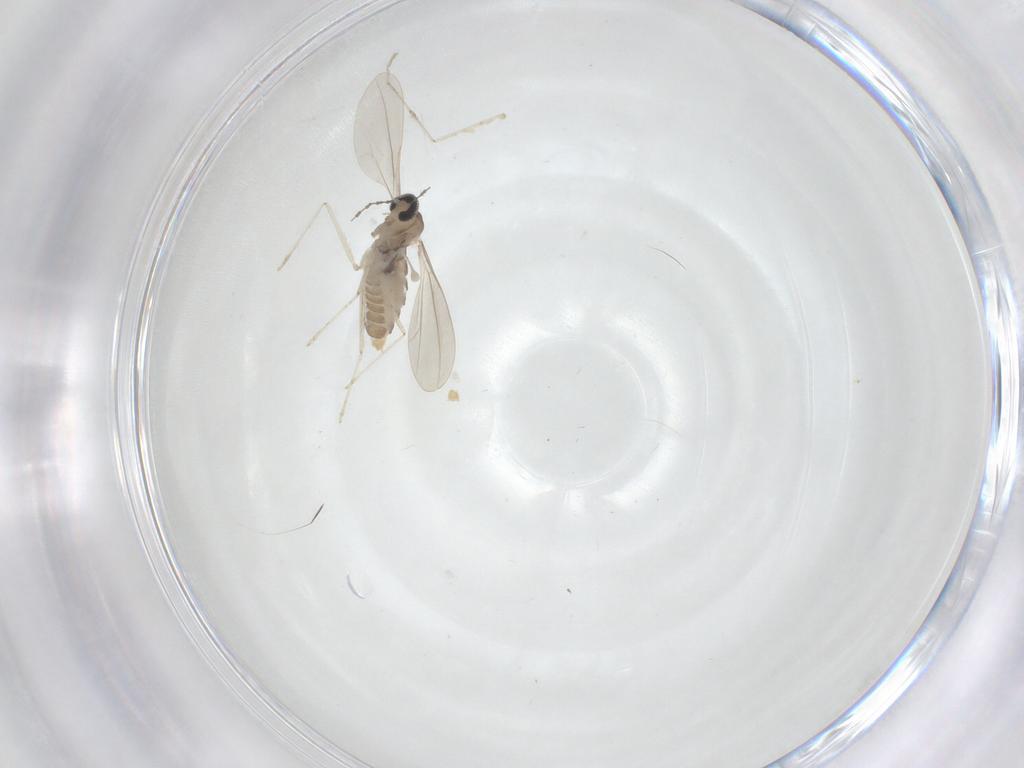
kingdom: Animalia
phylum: Arthropoda
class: Insecta
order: Diptera
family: Cecidomyiidae
